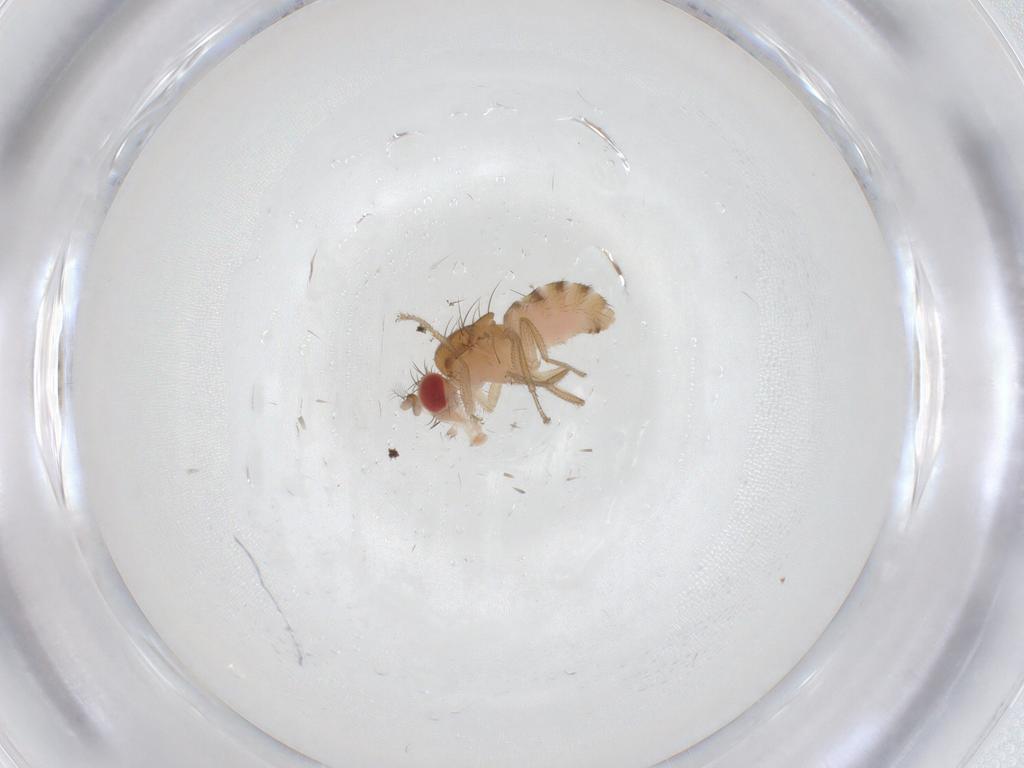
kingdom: Animalia
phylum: Arthropoda
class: Insecta
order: Diptera
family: Drosophilidae
